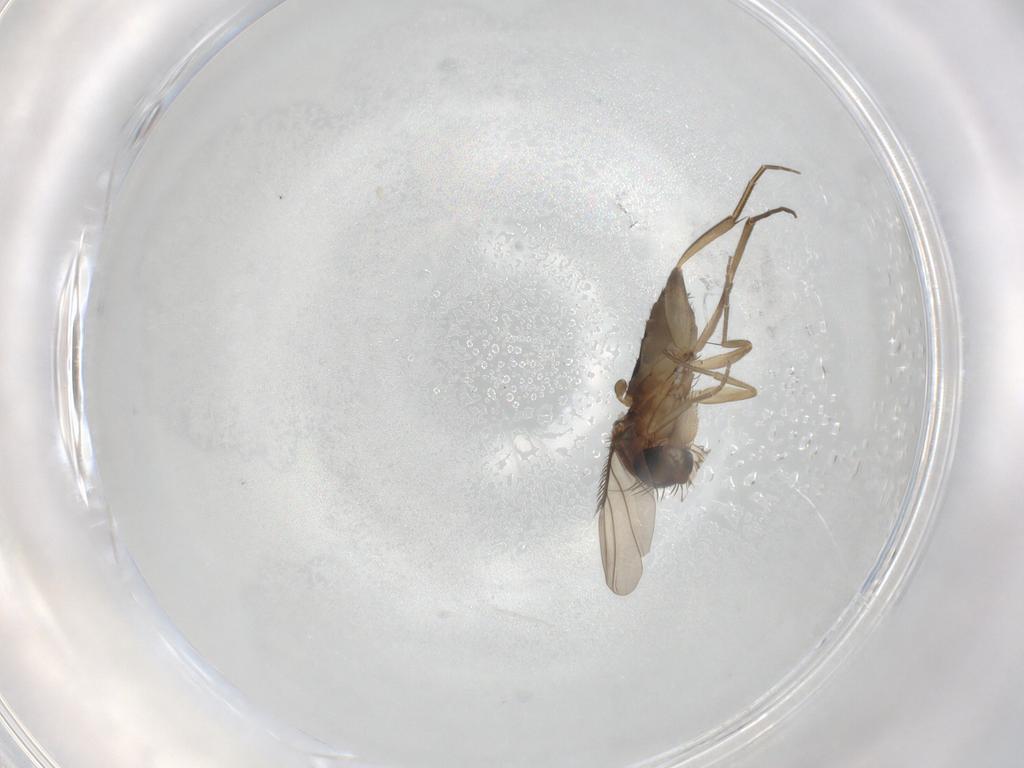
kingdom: Animalia
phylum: Arthropoda
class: Insecta
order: Diptera
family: Phoridae
